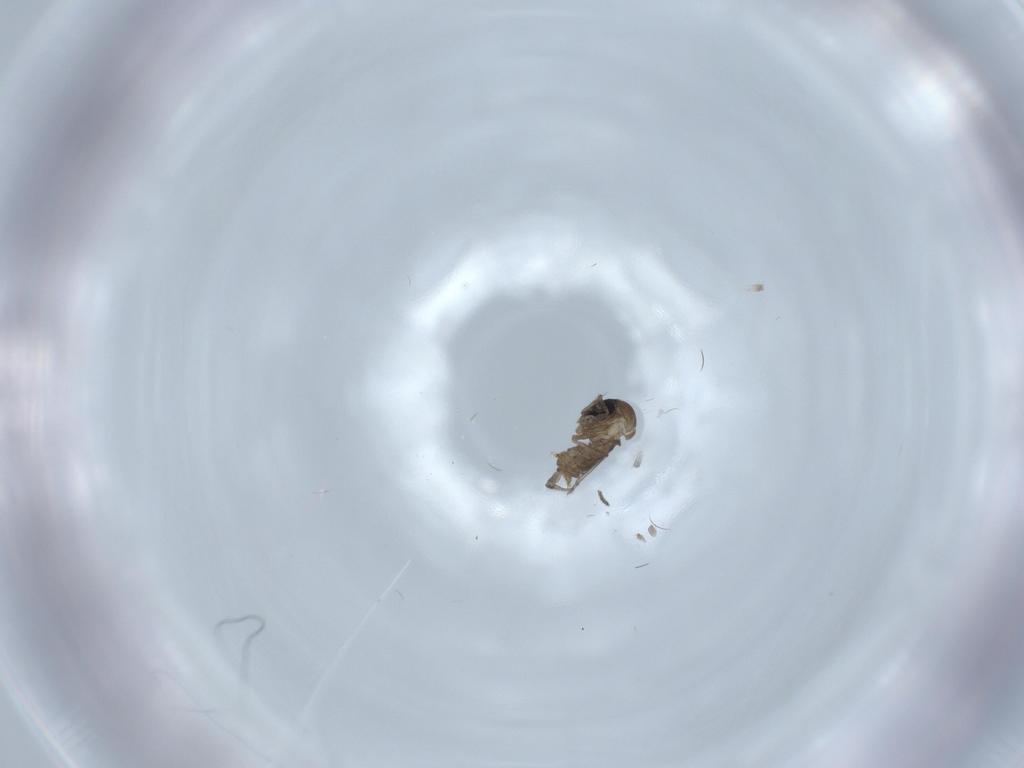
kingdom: Animalia
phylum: Arthropoda
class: Insecta
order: Diptera
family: Psychodidae
